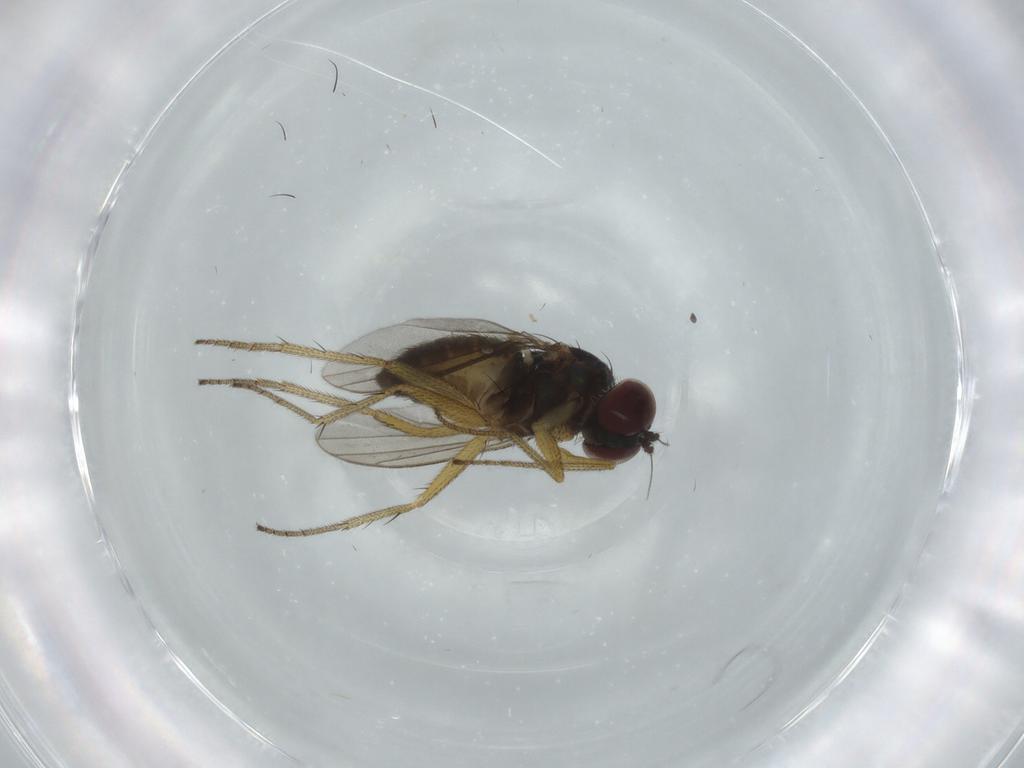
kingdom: Animalia
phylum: Arthropoda
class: Insecta
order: Diptera
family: Dolichopodidae
